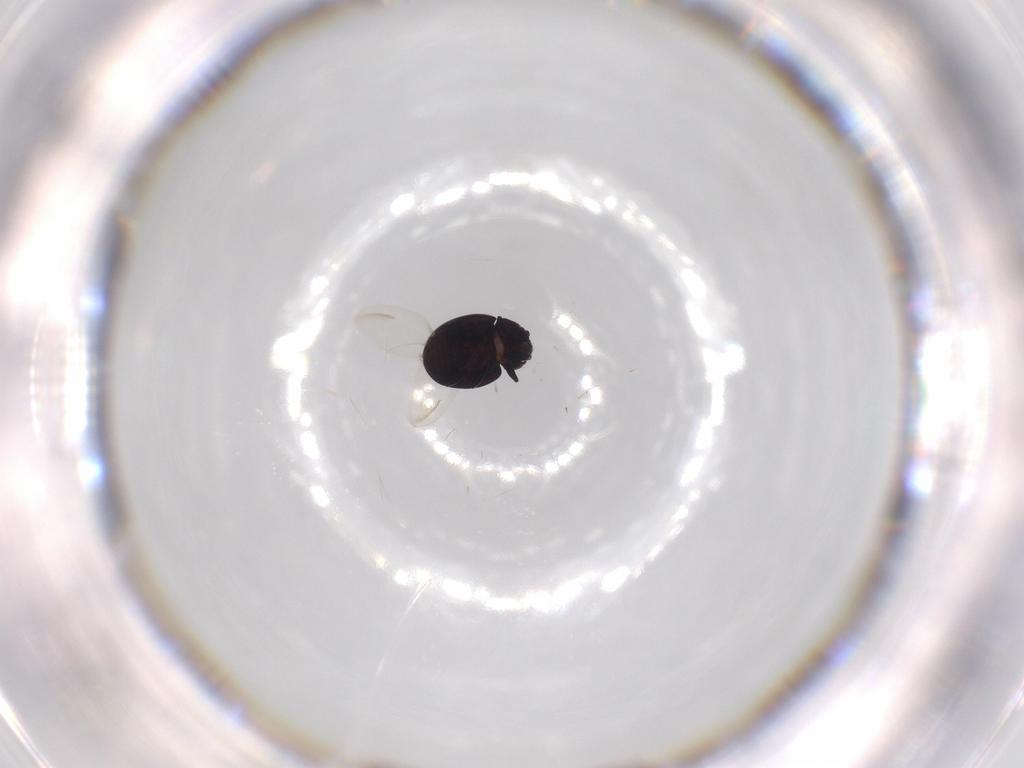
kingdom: Animalia
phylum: Arthropoda
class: Insecta
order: Coleoptera
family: Coccinellidae
